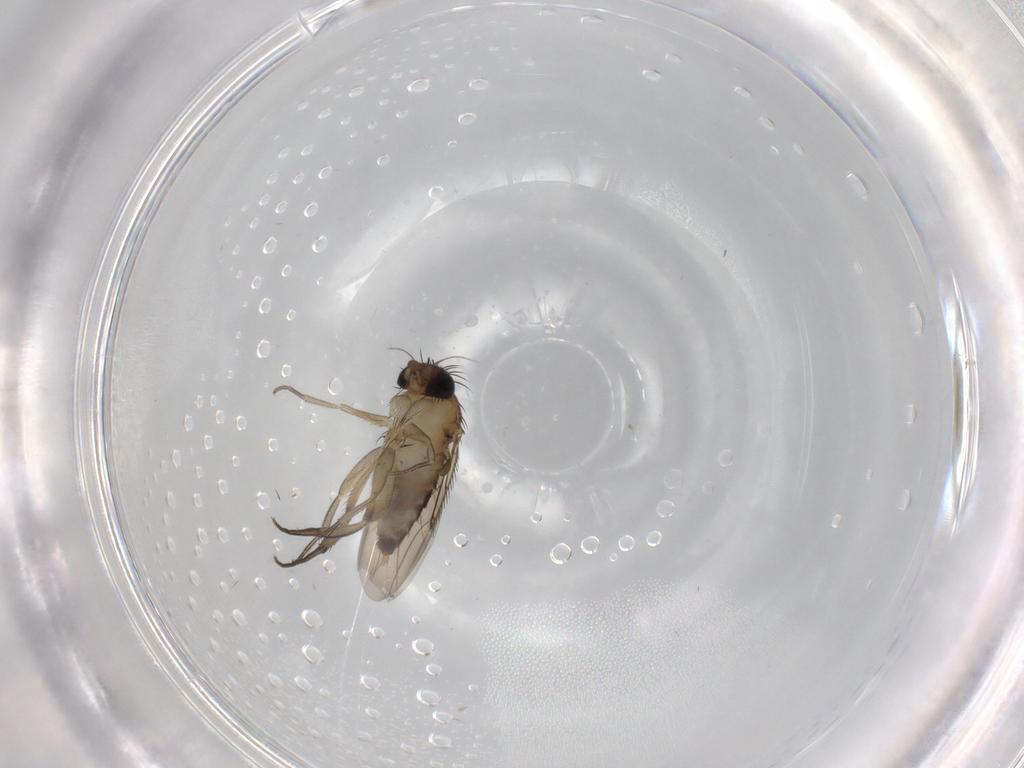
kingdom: Animalia
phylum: Arthropoda
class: Insecta
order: Diptera
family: Phoridae
